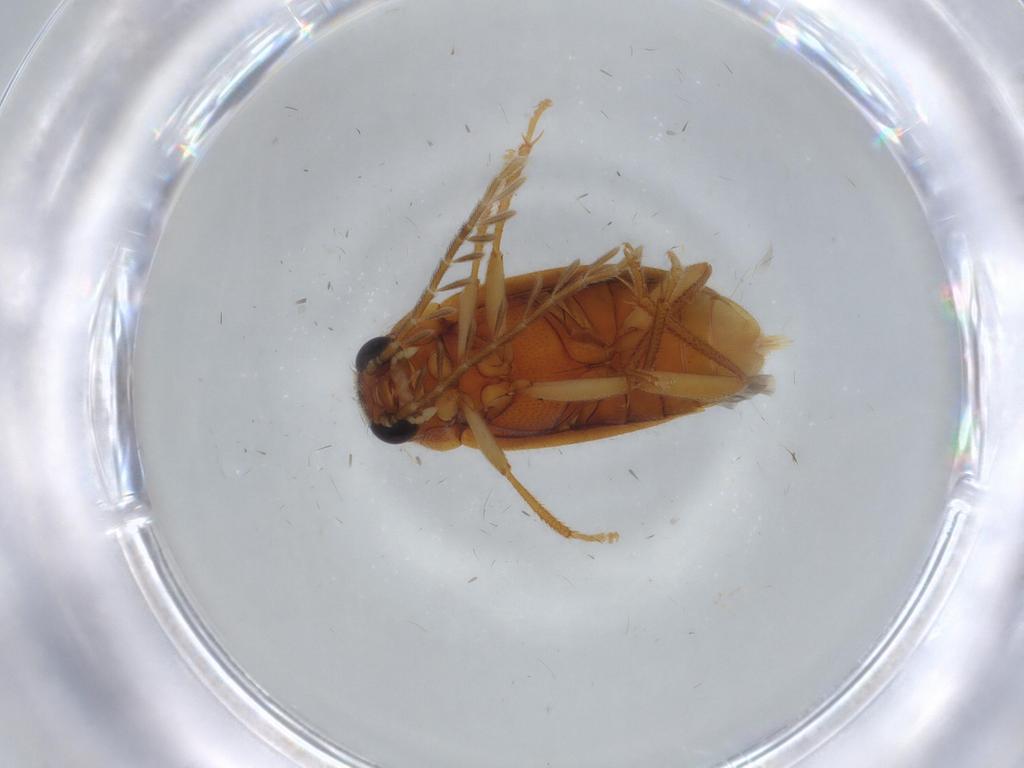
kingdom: Animalia
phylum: Arthropoda
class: Insecta
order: Coleoptera
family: Ptilodactylidae
